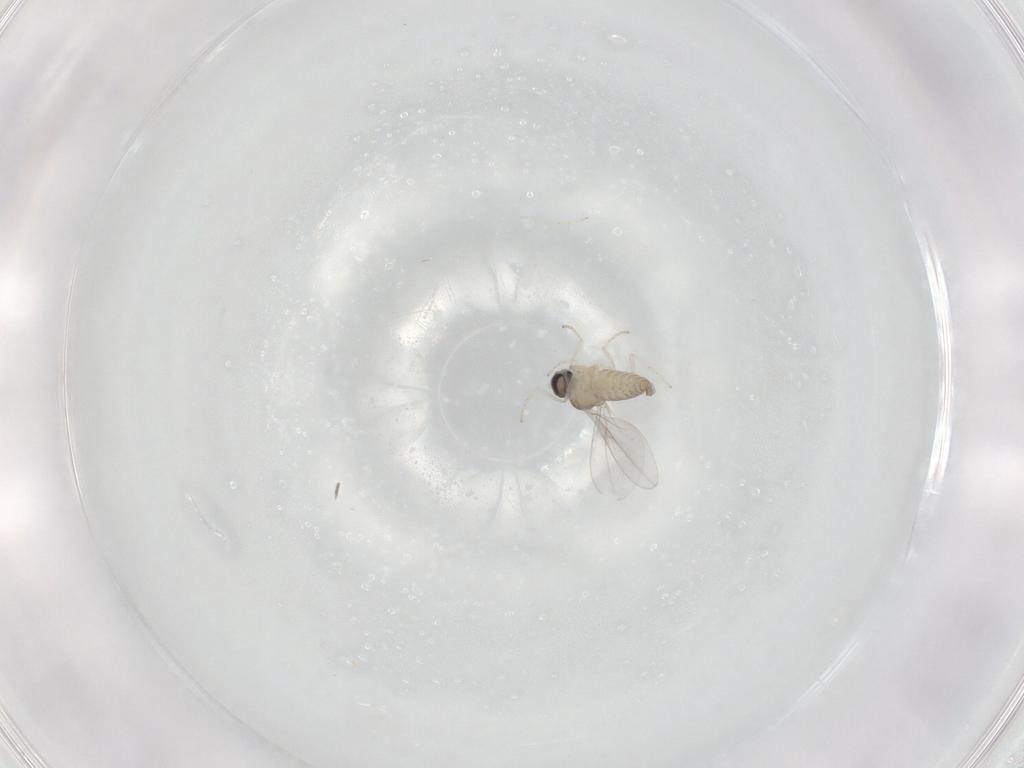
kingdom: Animalia
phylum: Arthropoda
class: Insecta
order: Diptera
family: Cecidomyiidae
